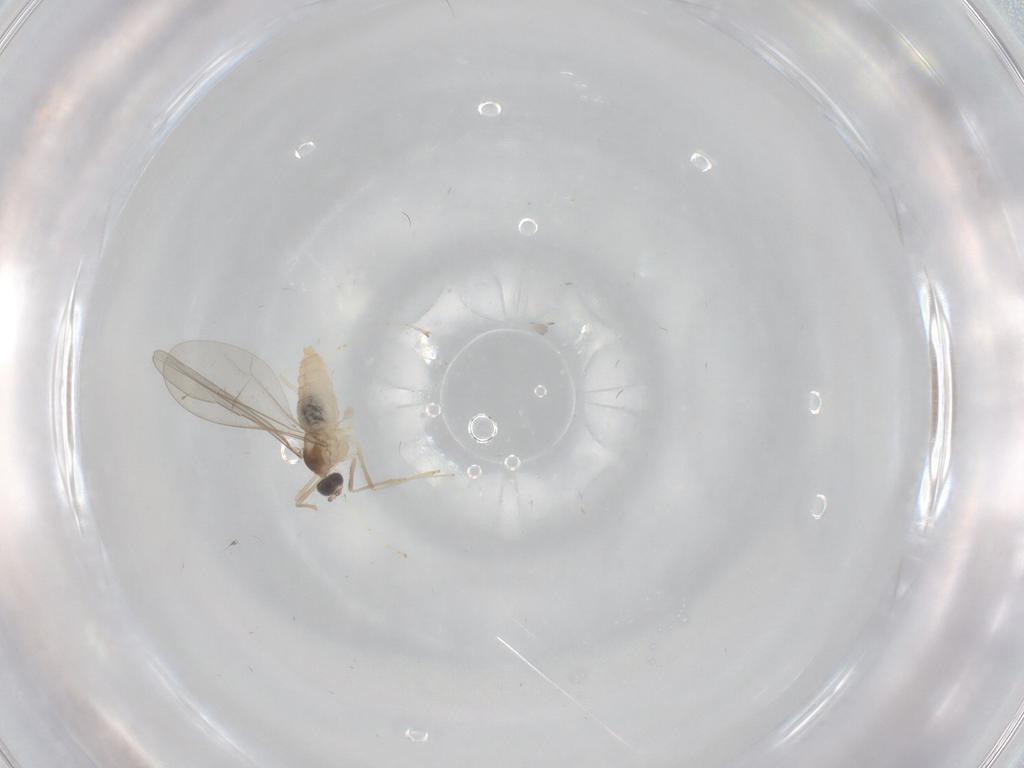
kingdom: Animalia
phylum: Arthropoda
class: Insecta
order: Diptera
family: Cecidomyiidae
